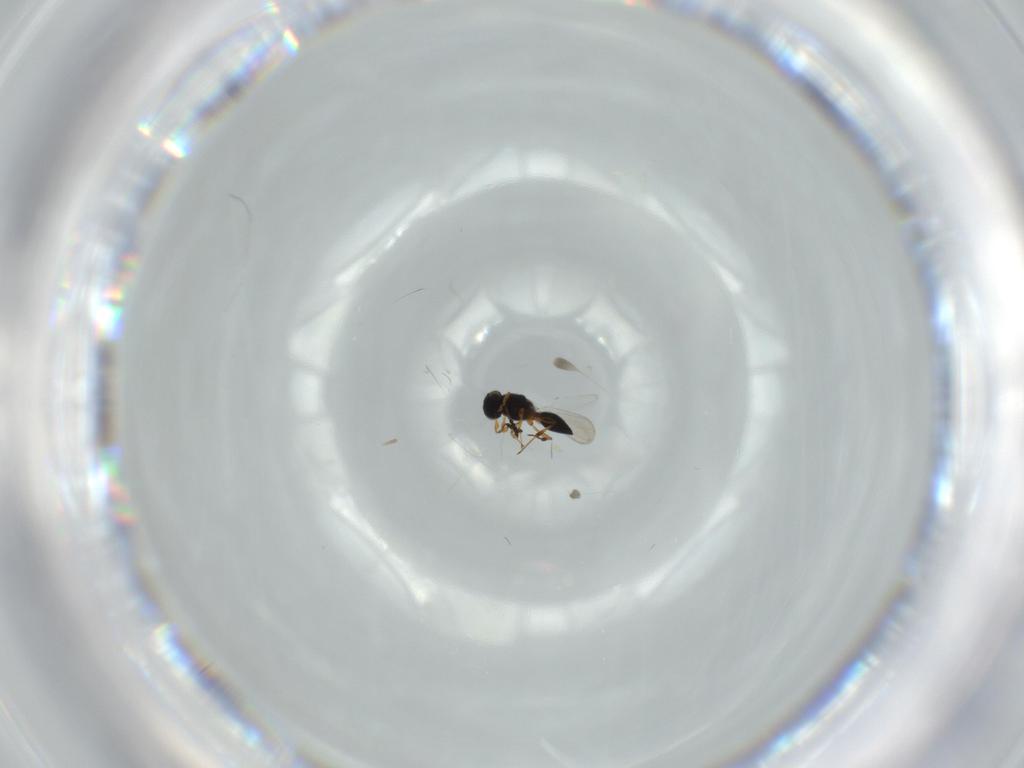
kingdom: Animalia
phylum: Arthropoda
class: Insecta
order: Hymenoptera
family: Platygastridae
